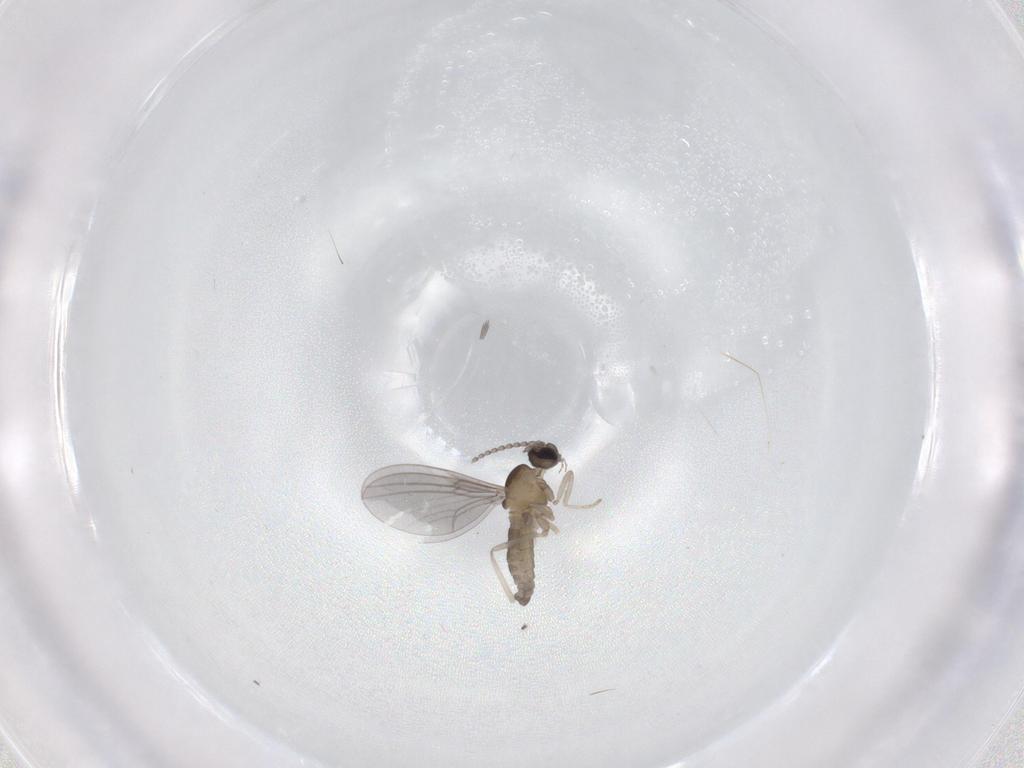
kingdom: Animalia
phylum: Arthropoda
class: Insecta
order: Diptera
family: Cecidomyiidae
